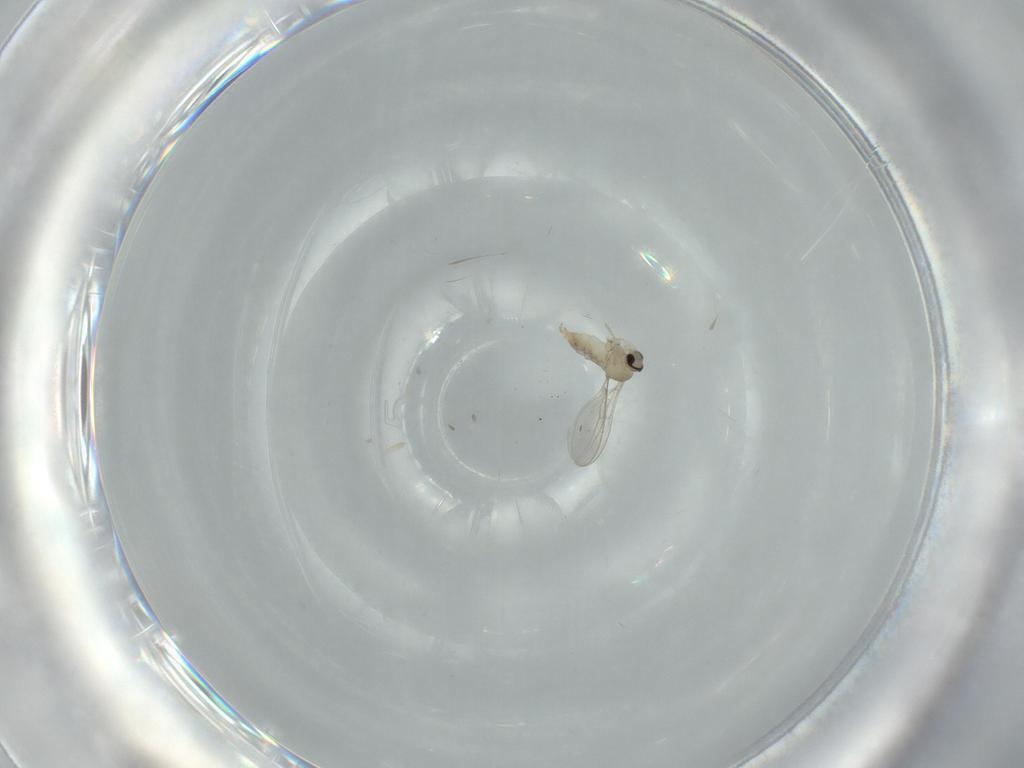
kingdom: Animalia
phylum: Arthropoda
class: Insecta
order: Diptera
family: Cecidomyiidae
